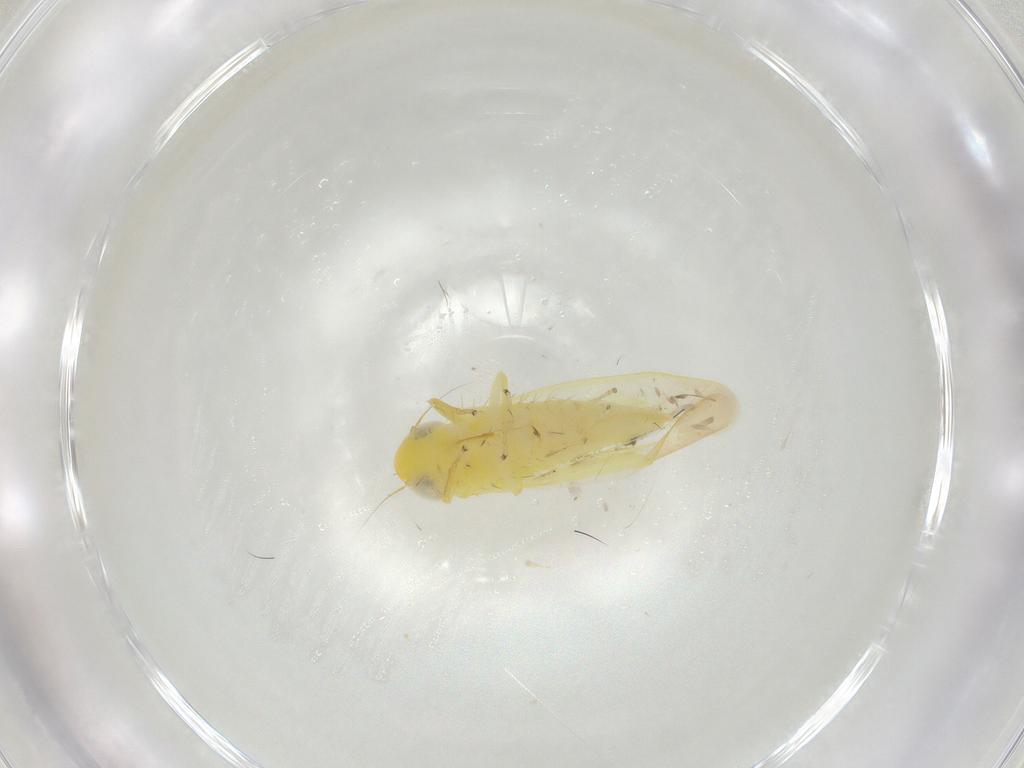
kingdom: Animalia
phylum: Arthropoda
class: Insecta
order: Hemiptera
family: Cicadellidae
